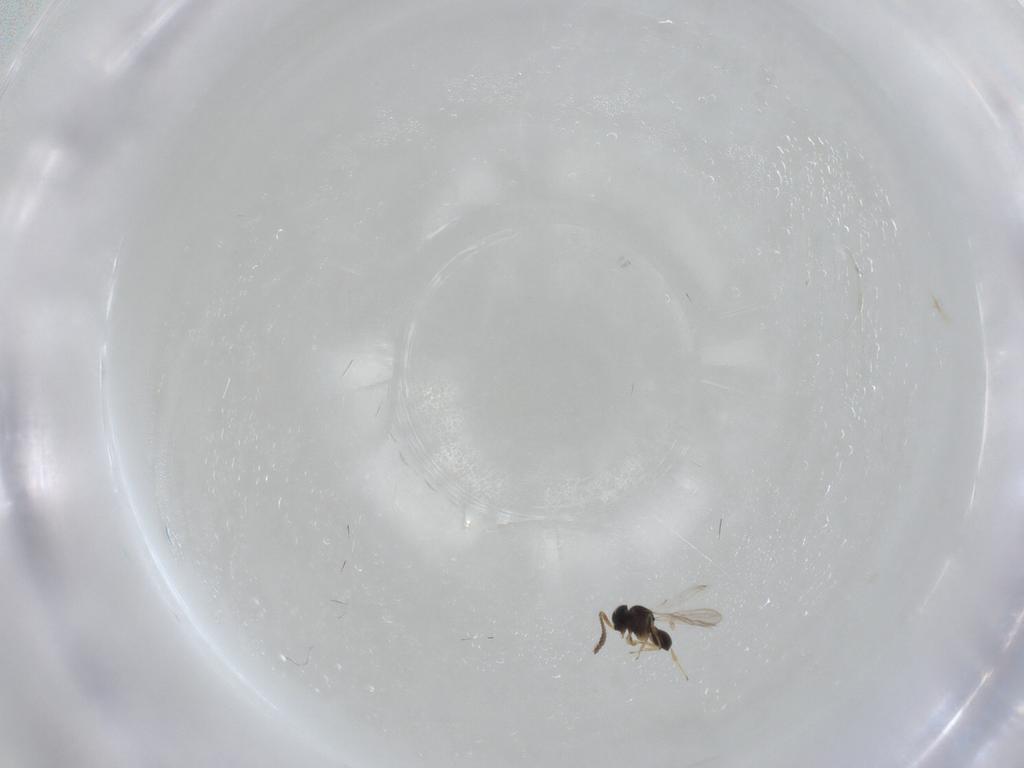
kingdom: Animalia
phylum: Arthropoda
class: Insecta
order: Hymenoptera
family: Scelionidae
